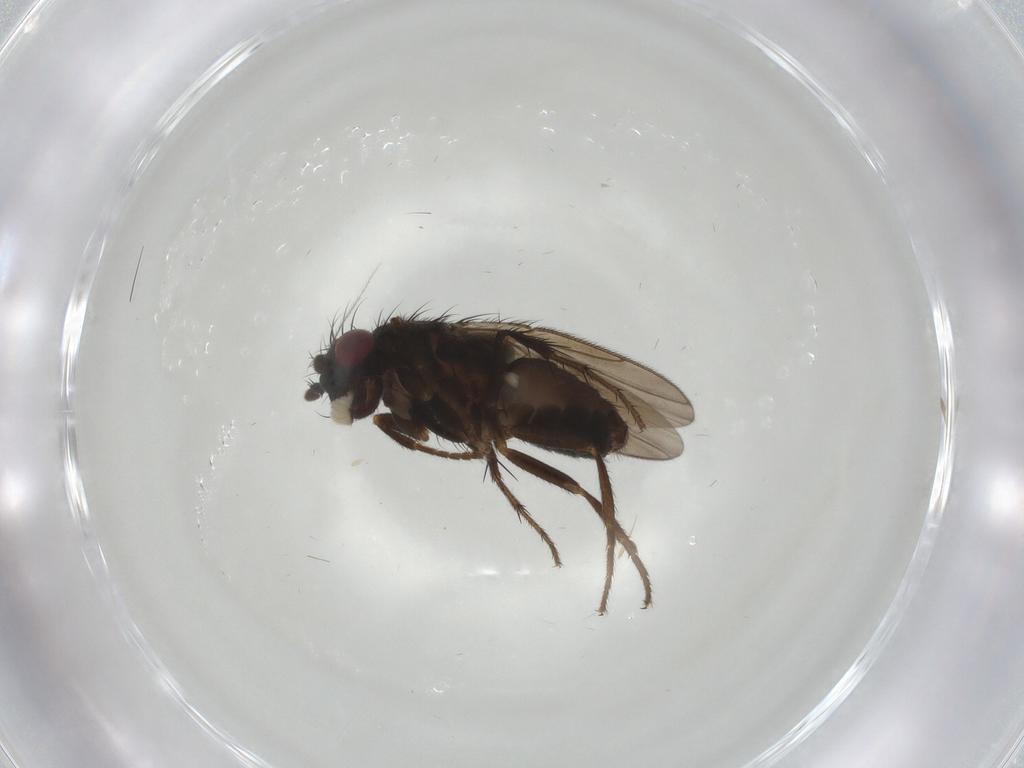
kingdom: Animalia
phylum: Arthropoda
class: Insecta
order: Diptera
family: Sphaeroceridae
